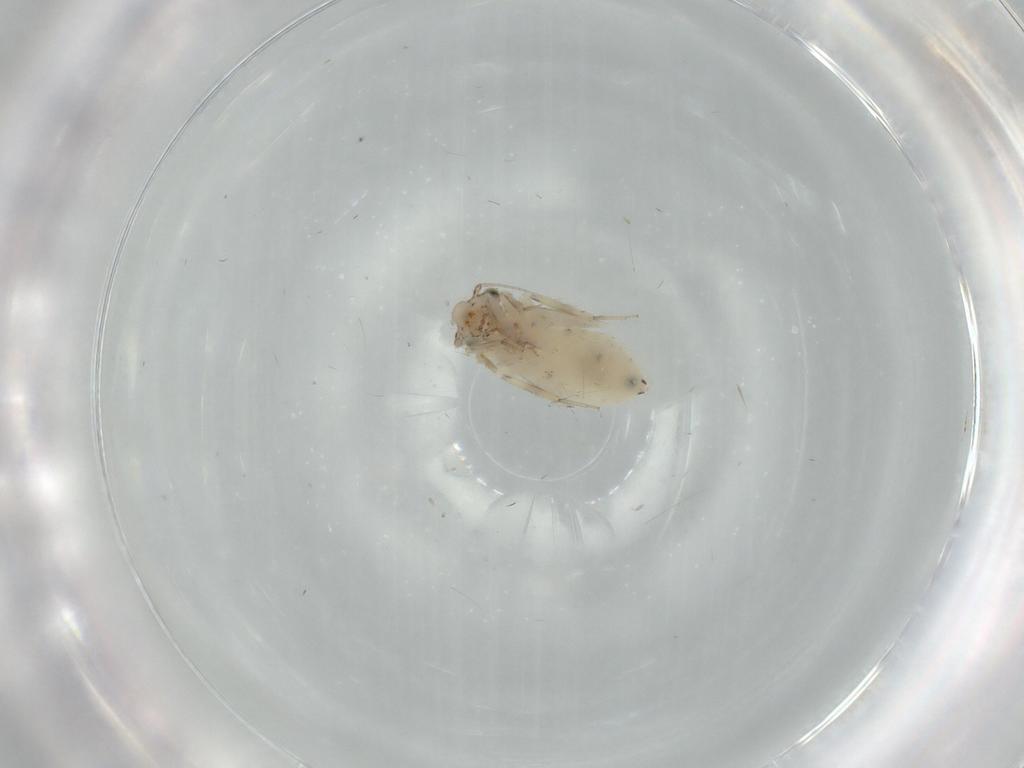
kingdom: Animalia
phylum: Arthropoda
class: Insecta
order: Psocodea
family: Lepidopsocidae
